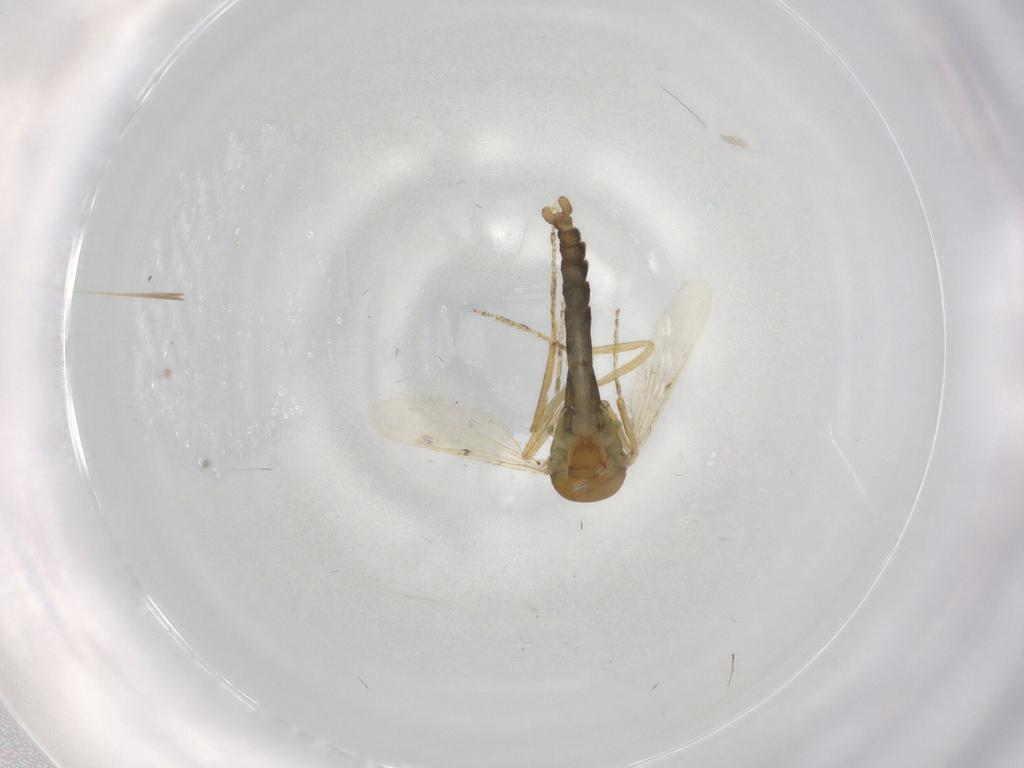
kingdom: Animalia
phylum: Arthropoda
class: Insecta
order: Diptera
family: Ceratopogonidae
